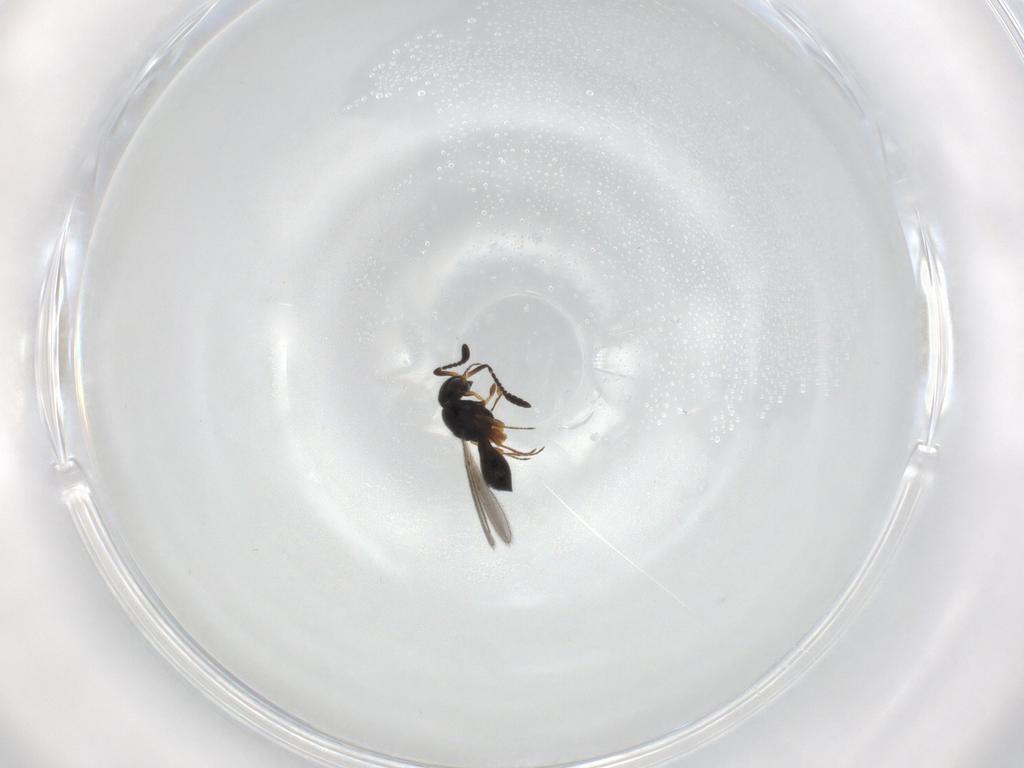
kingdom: Animalia
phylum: Arthropoda
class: Insecta
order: Hymenoptera
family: Scelionidae
